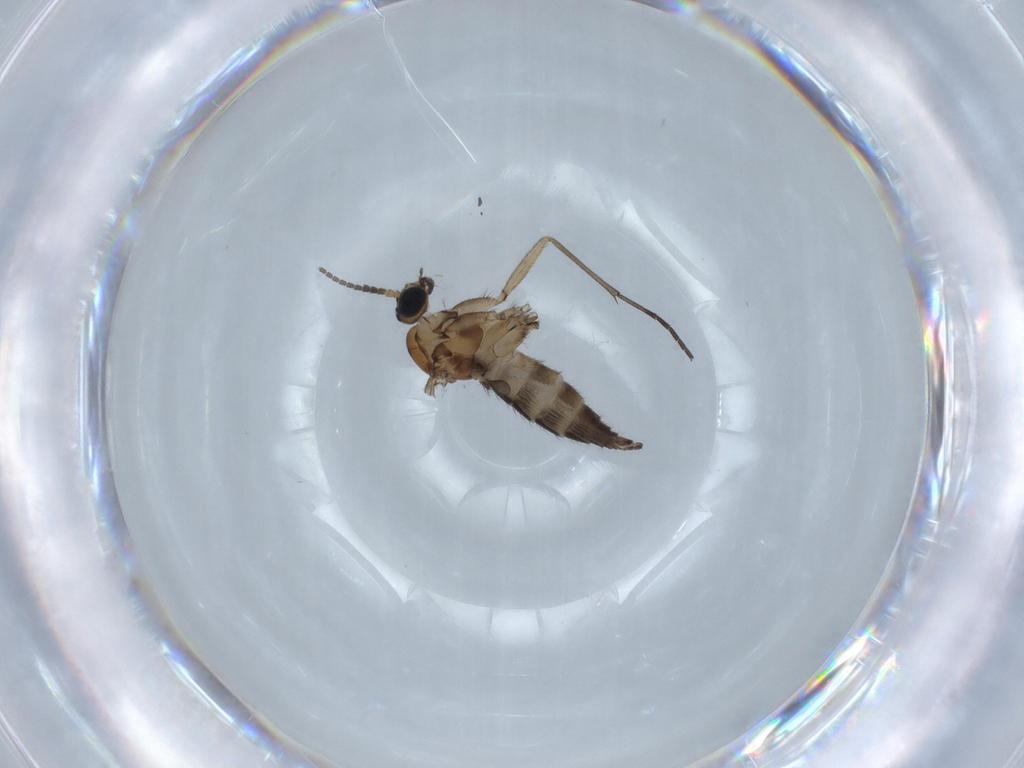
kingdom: Animalia
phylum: Arthropoda
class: Insecta
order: Diptera
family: Sciaridae
